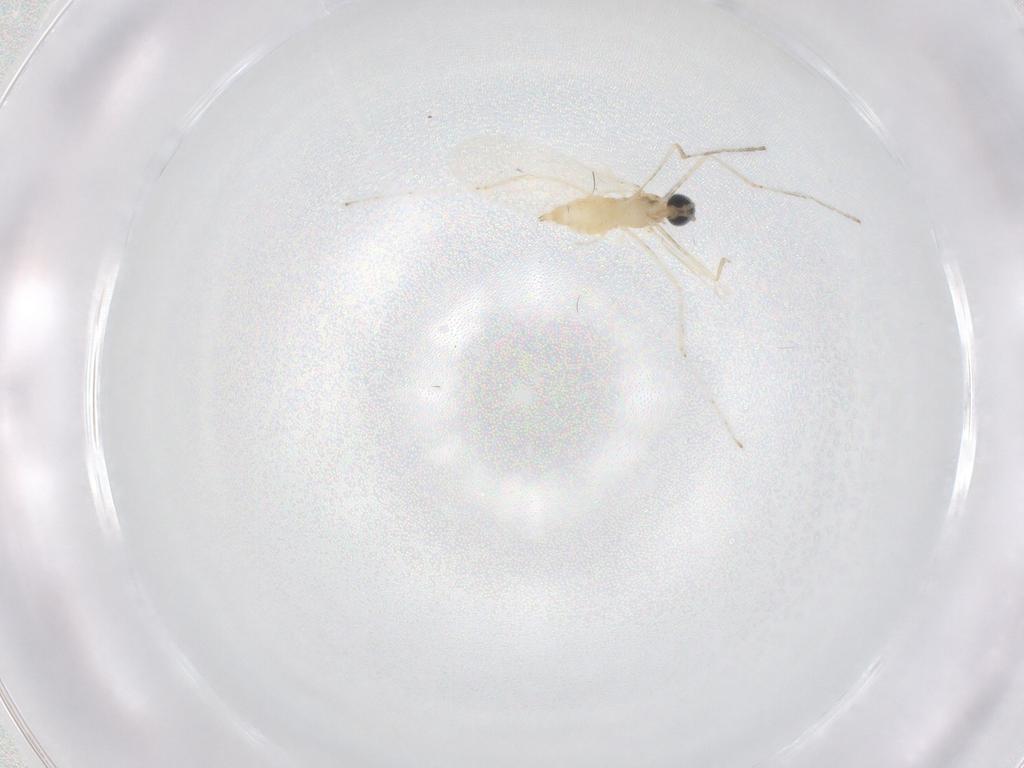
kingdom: Animalia
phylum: Arthropoda
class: Insecta
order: Diptera
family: Cecidomyiidae
